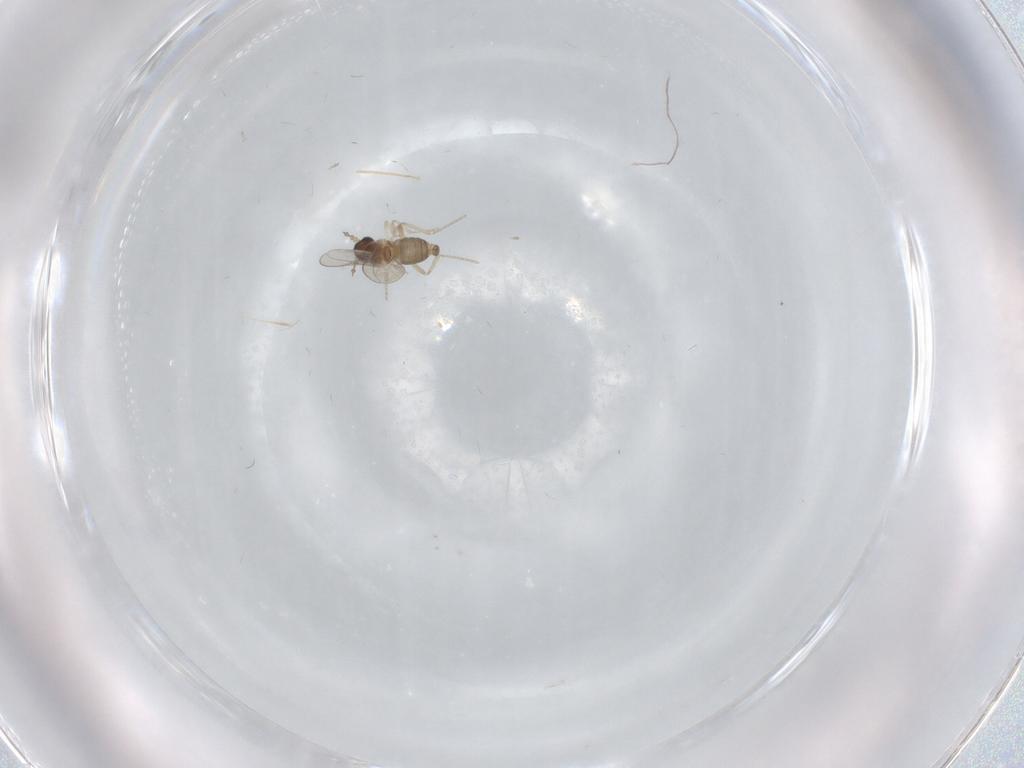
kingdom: Animalia
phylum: Arthropoda
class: Insecta
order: Diptera
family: Cecidomyiidae
